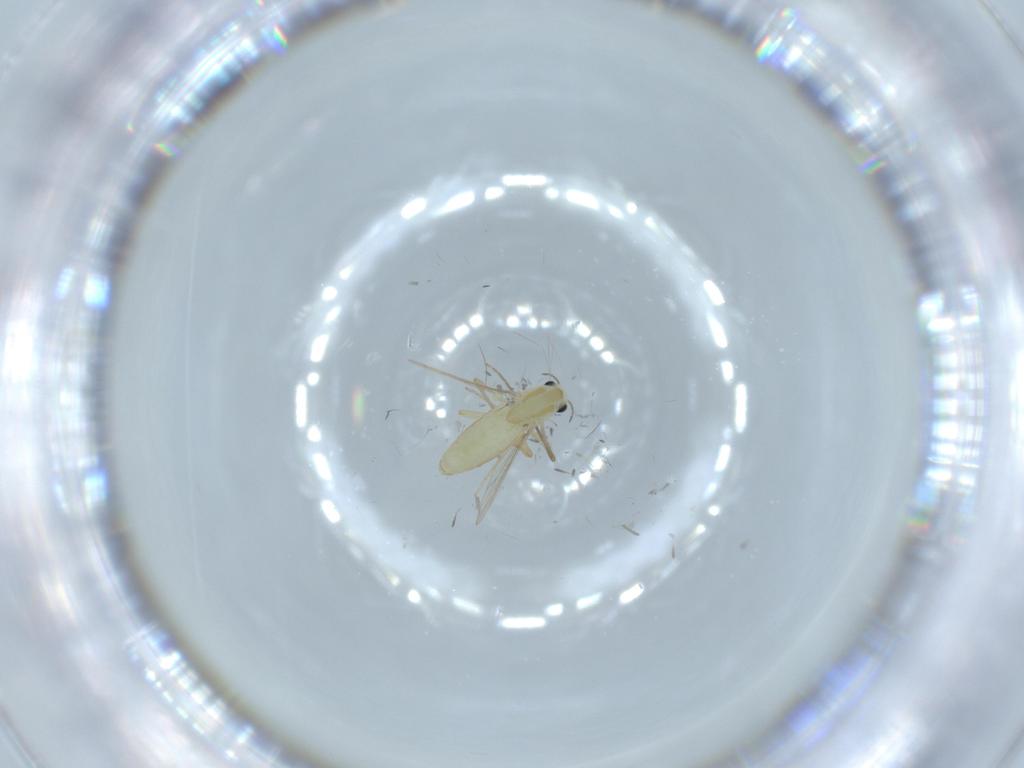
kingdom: Animalia
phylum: Arthropoda
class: Insecta
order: Diptera
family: Chironomidae
